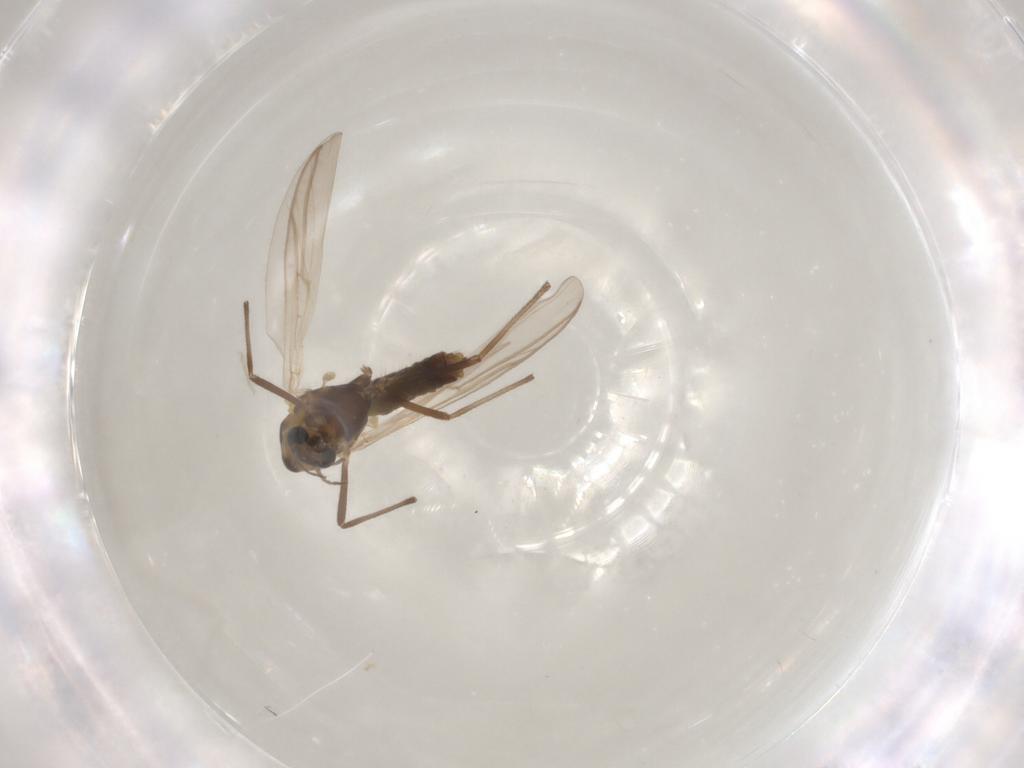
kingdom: Animalia
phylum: Arthropoda
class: Insecta
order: Diptera
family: Chironomidae
